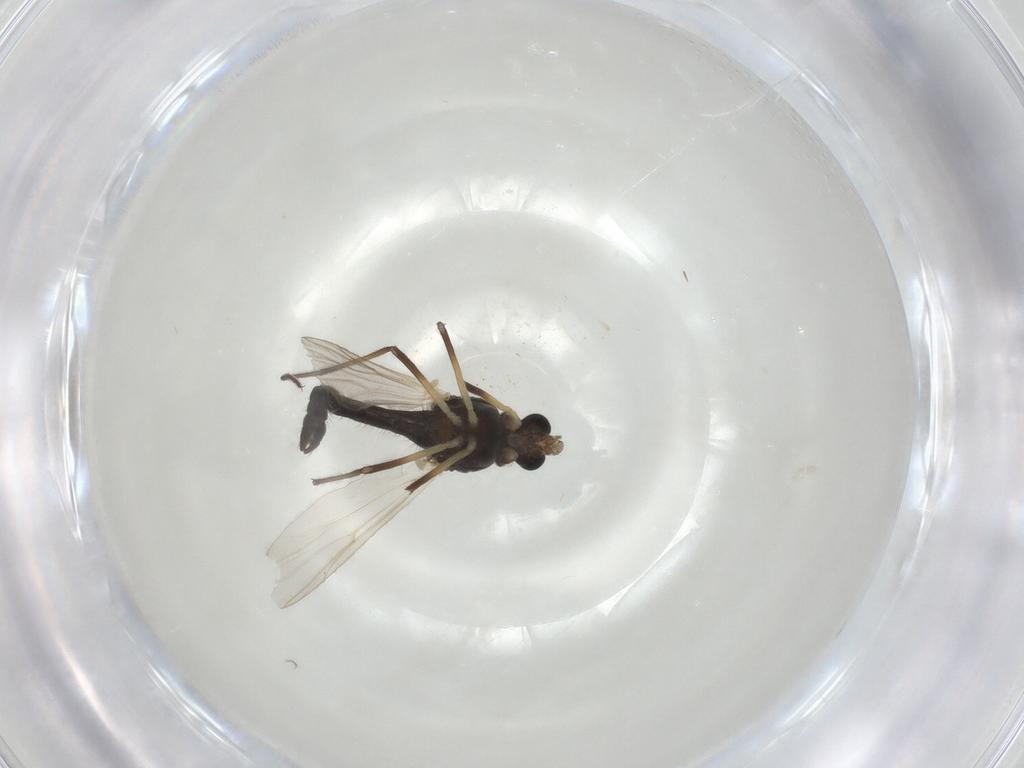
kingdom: Animalia
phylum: Arthropoda
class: Insecta
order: Diptera
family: Chironomidae
